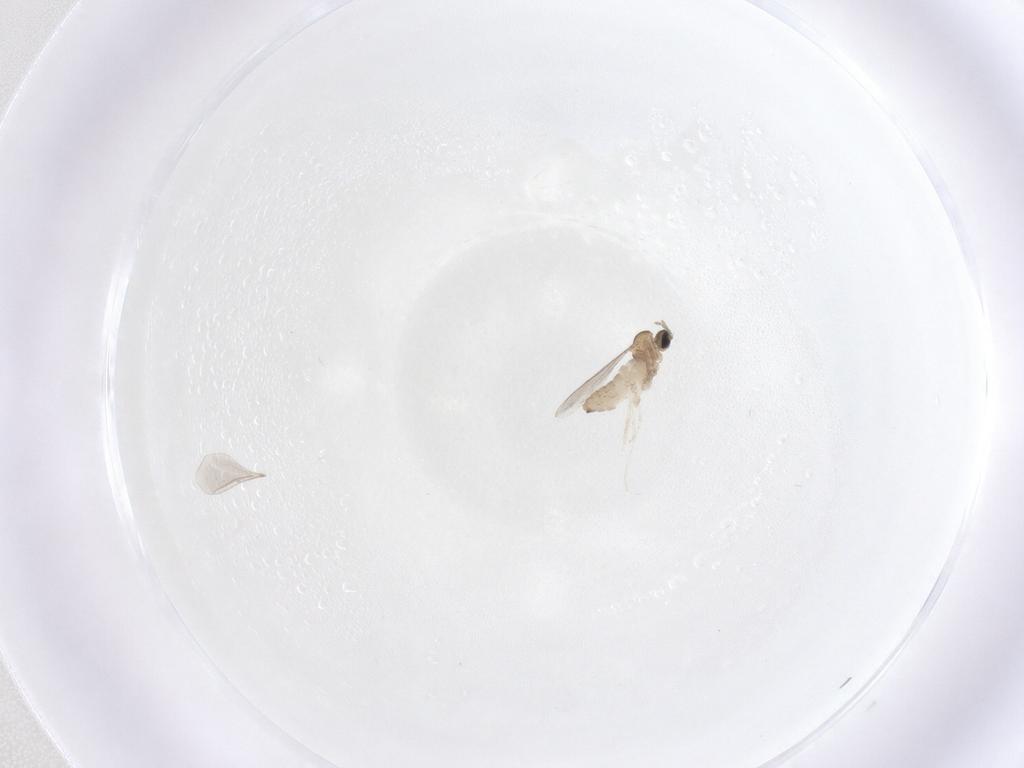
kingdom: Animalia
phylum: Arthropoda
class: Insecta
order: Diptera
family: Cecidomyiidae
